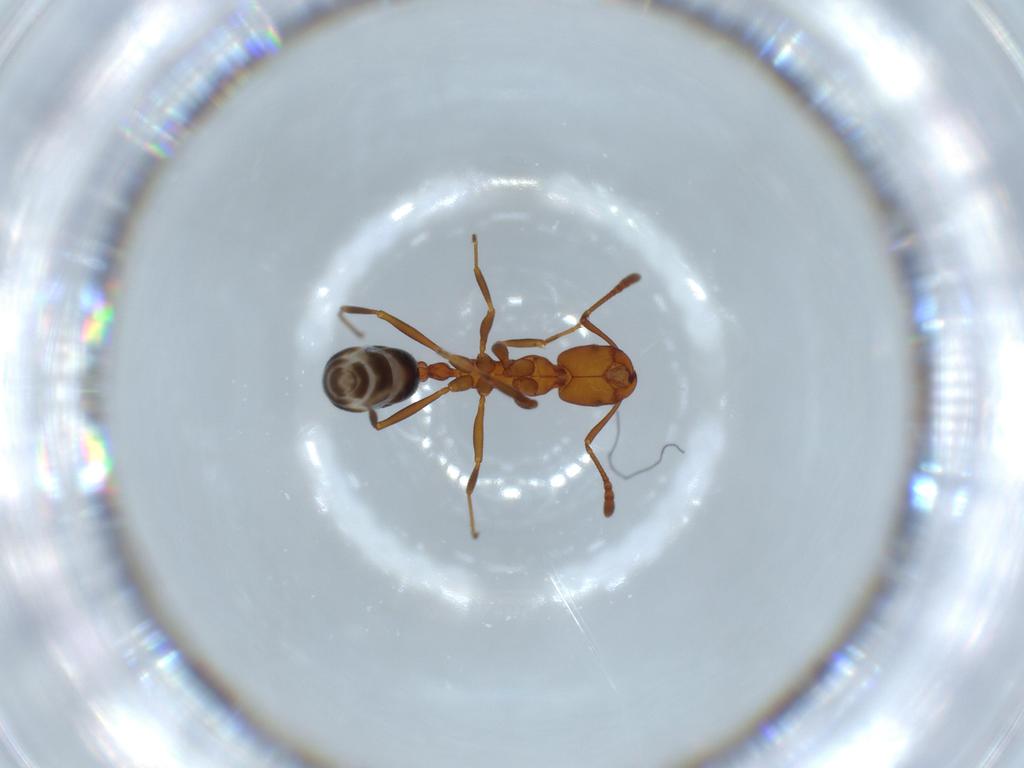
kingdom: Animalia
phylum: Arthropoda
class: Insecta
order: Hymenoptera
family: Formicidae
